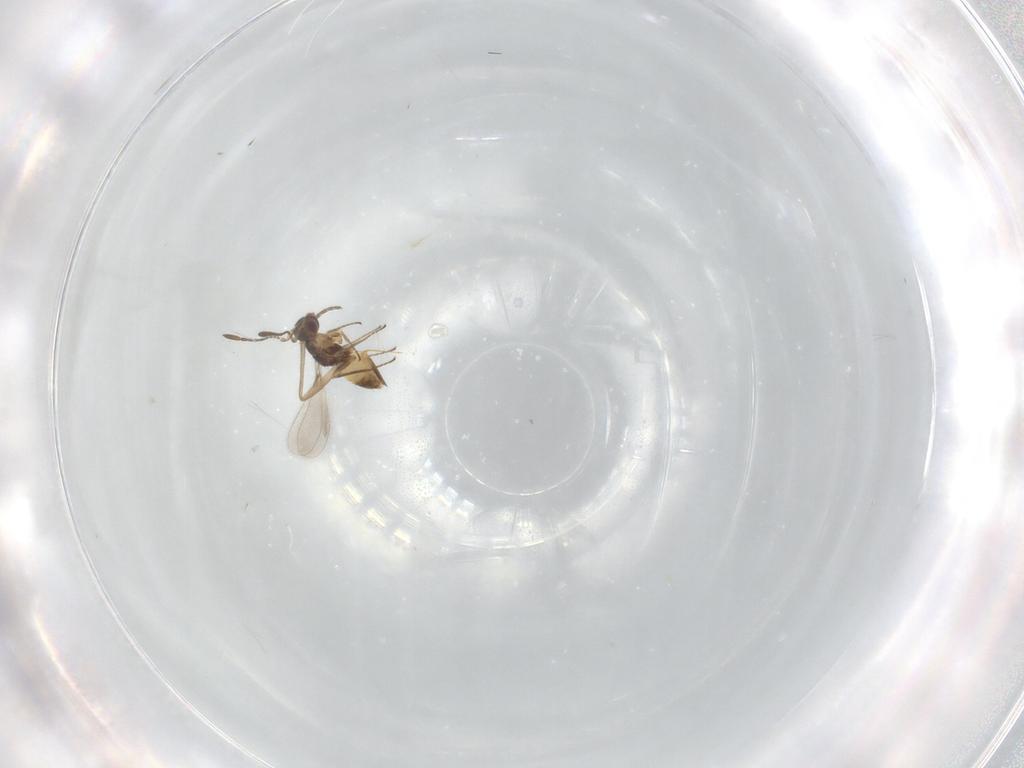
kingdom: Animalia
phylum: Arthropoda
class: Insecta
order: Hymenoptera
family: Mymaridae
